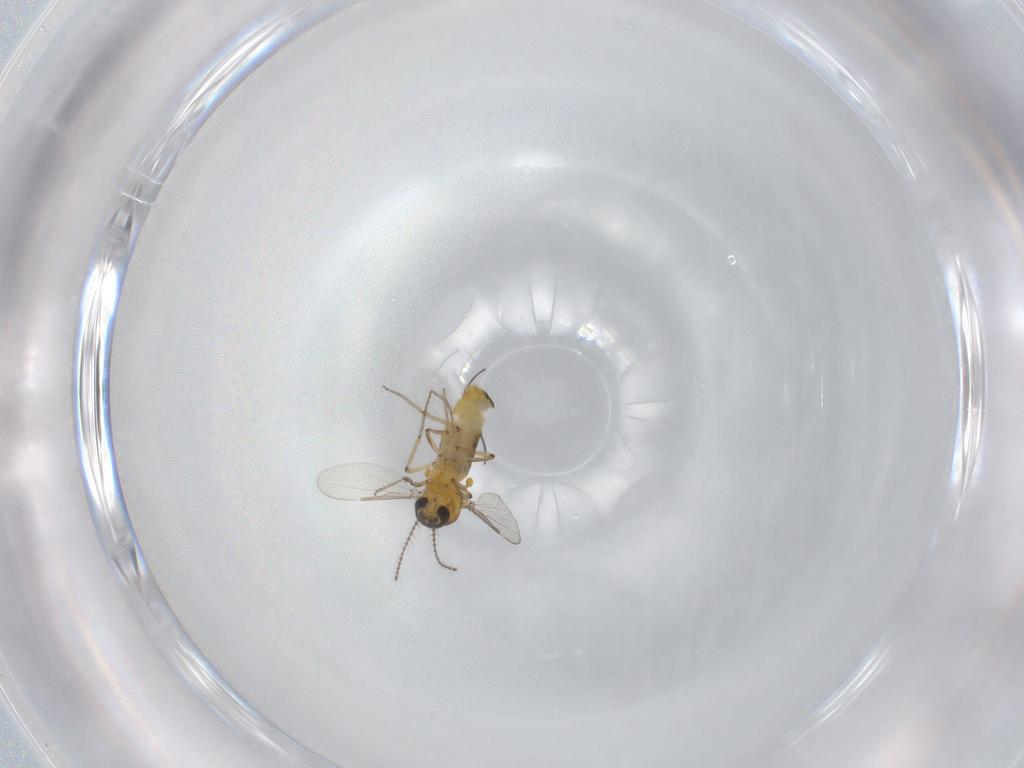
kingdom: Animalia
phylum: Arthropoda
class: Insecta
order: Diptera
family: Ceratopogonidae
